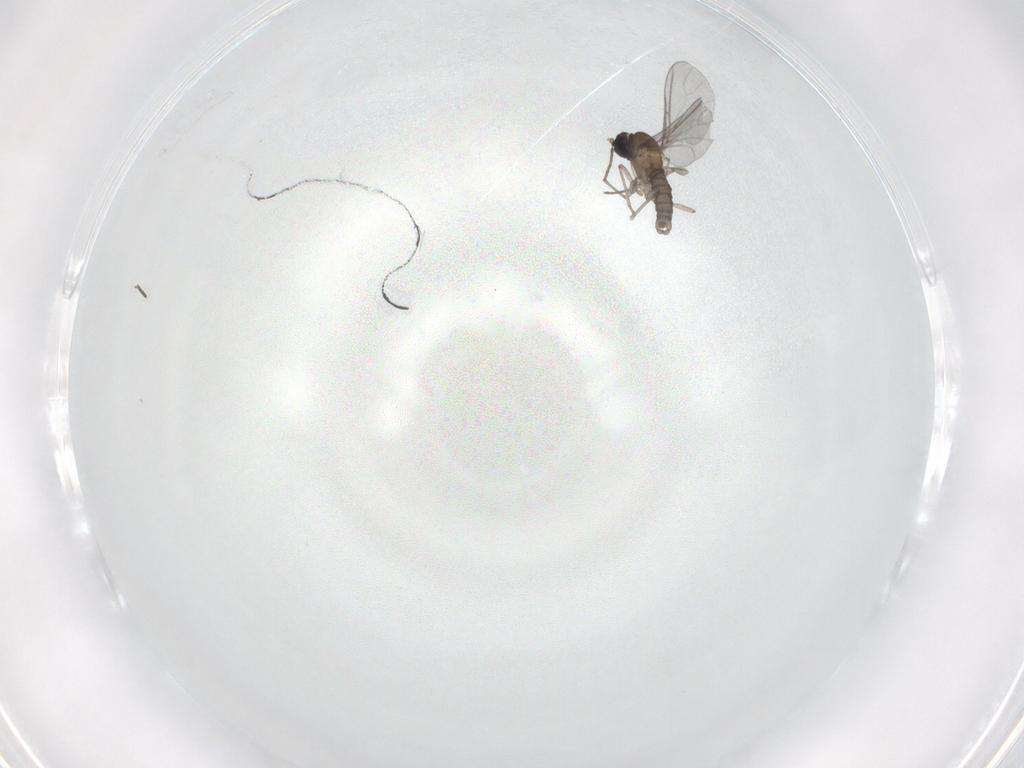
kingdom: Animalia
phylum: Arthropoda
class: Insecta
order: Diptera
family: Sciaridae
